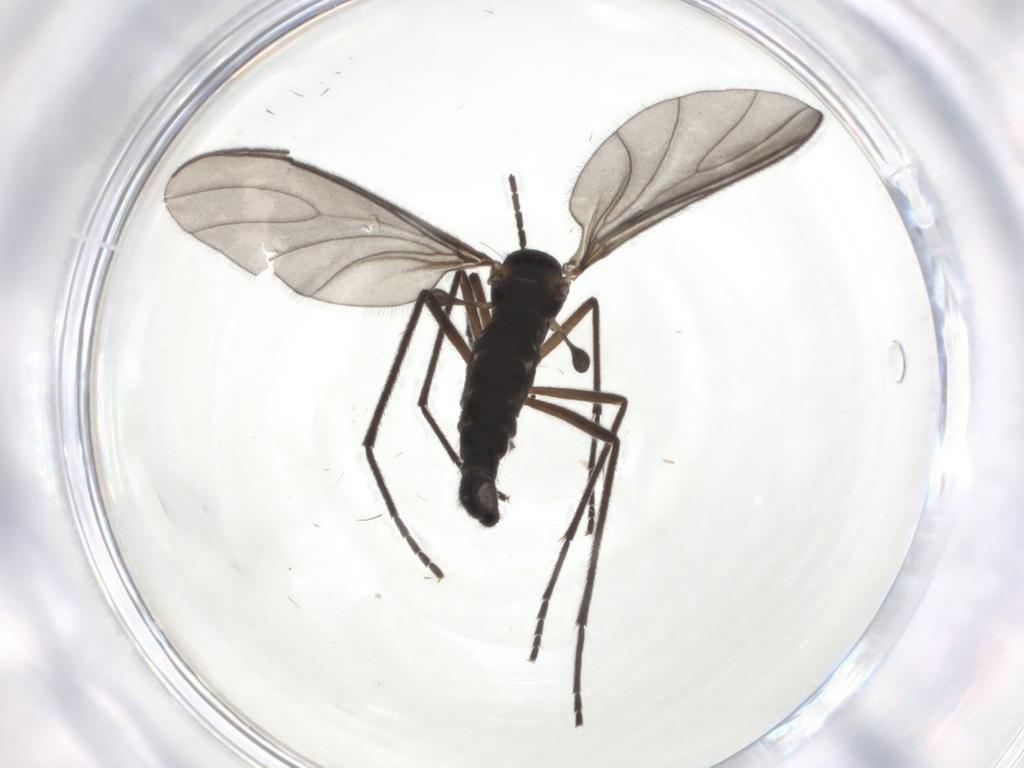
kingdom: Animalia
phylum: Arthropoda
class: Insecta
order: Diptera
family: Sciaridae
